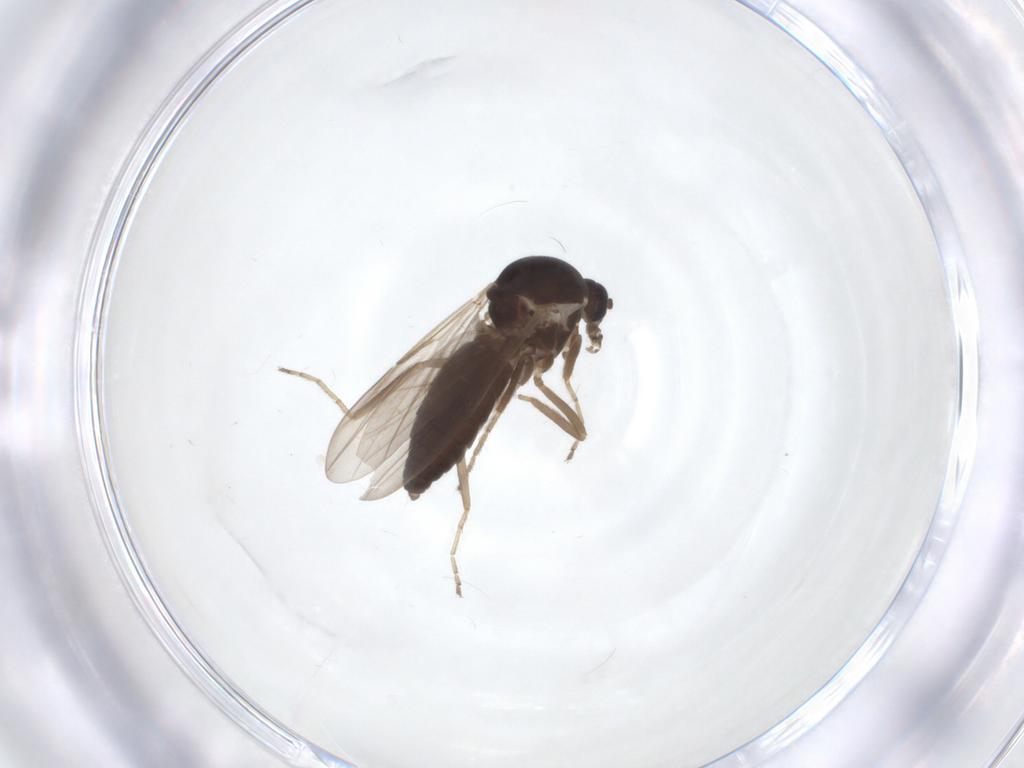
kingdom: Animalia
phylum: Arthropoda
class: Insecta
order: Diptera
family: Ceratopogonidae
